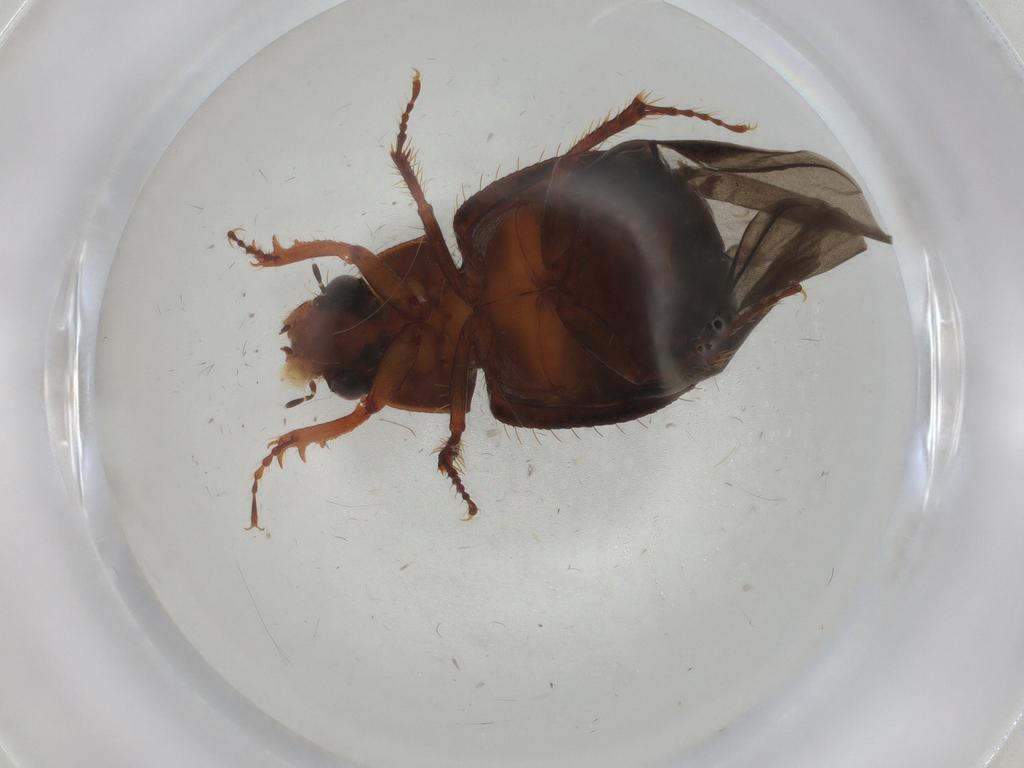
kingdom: Animalia
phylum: Arthropoda
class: Insecta
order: Coleoptera
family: Hybosoridae
